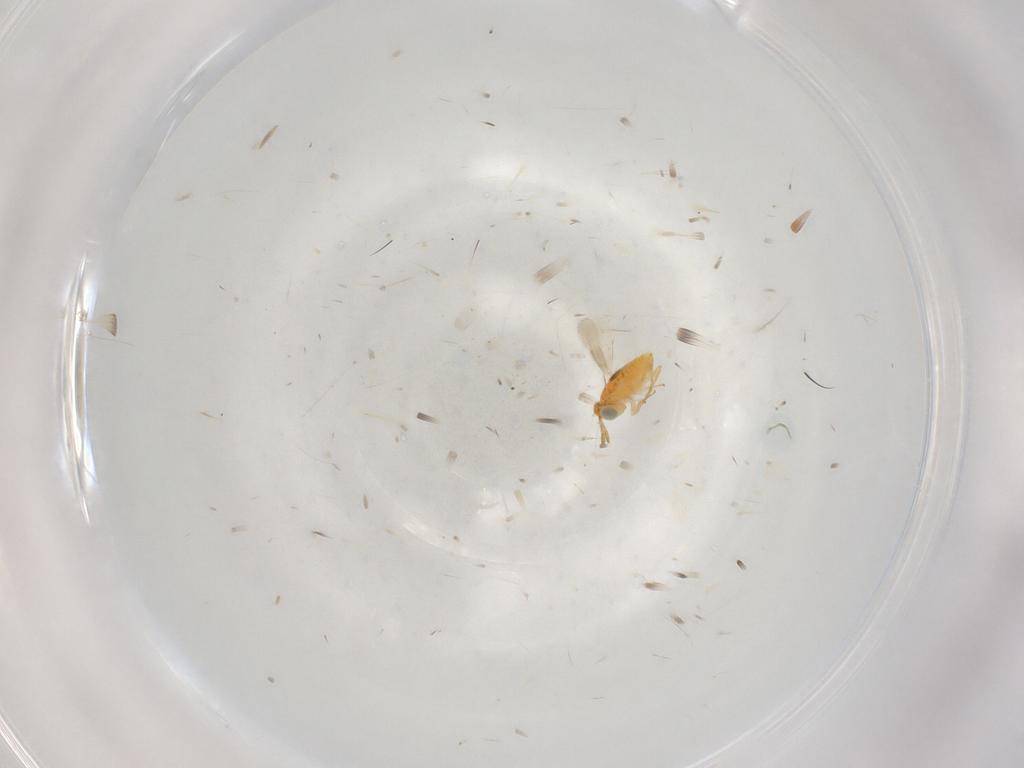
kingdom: Animalia
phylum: Arthropoda
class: Insecta
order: Hymenoptera
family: Aphelinidae
